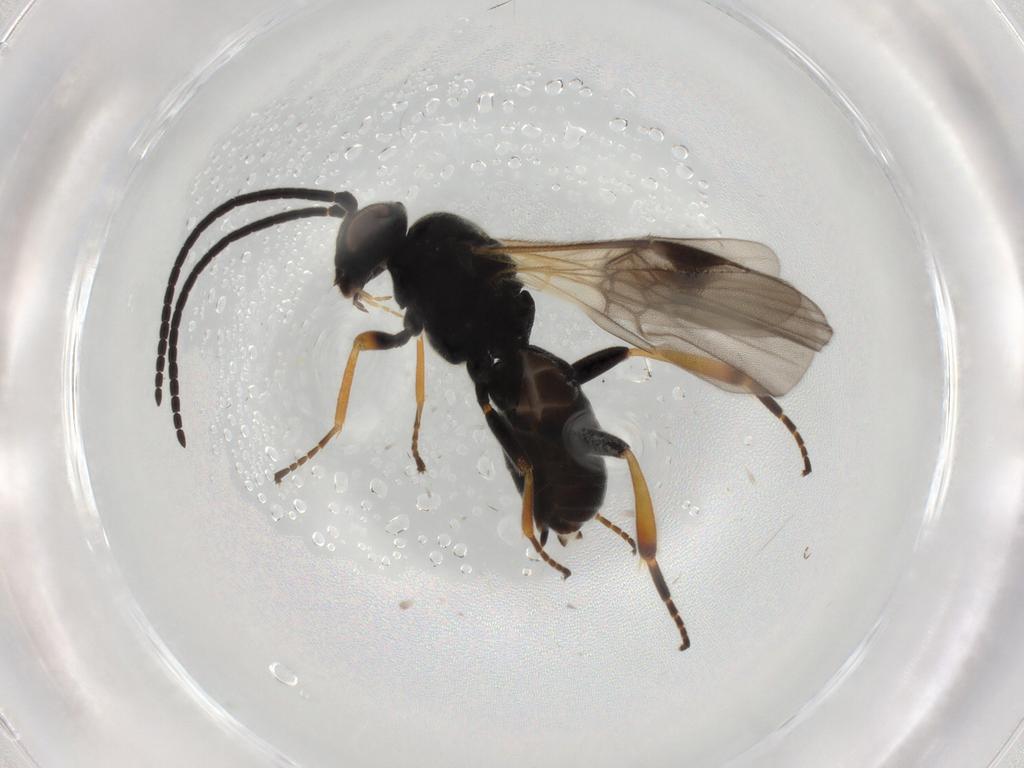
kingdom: Animalia
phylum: Arthropoda
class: Insecta
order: Hymenoptera
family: Braconidae
